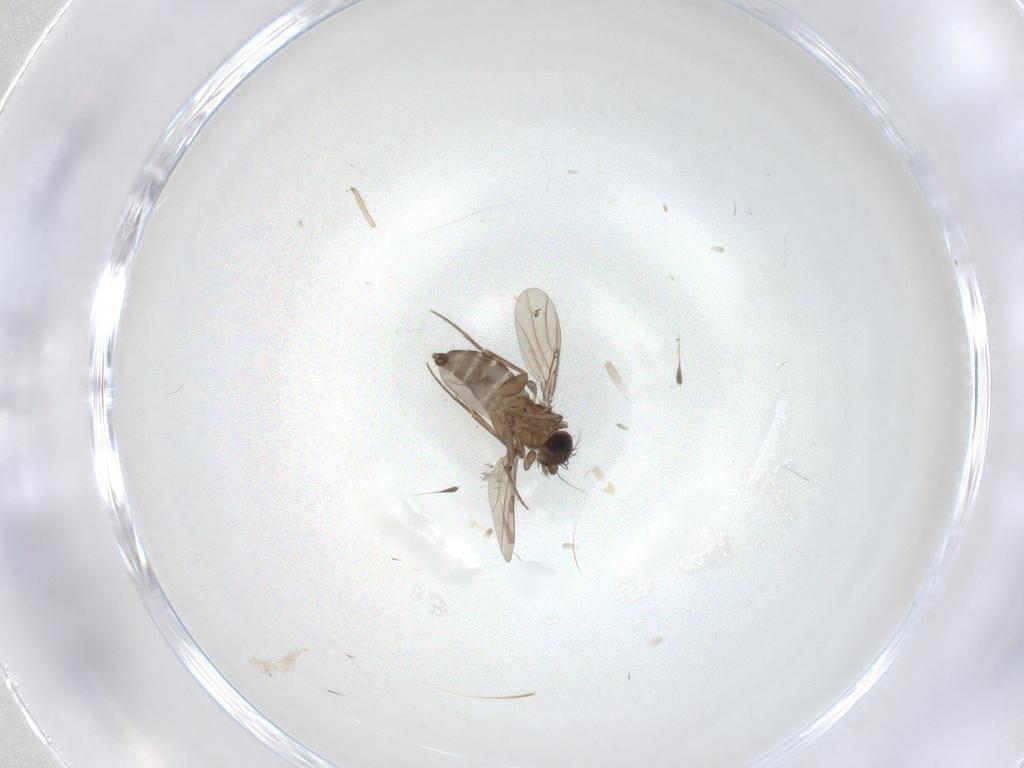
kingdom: Animalia
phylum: Arthropoda
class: Insecta
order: Diptera
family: Phoridae
